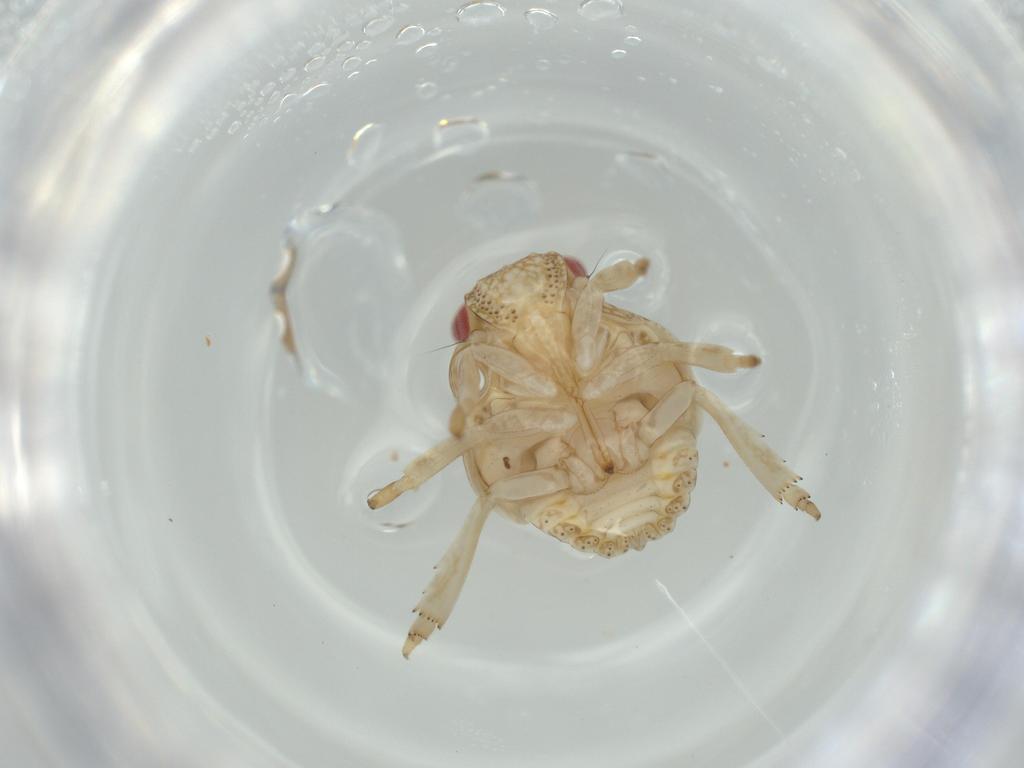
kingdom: Animalia
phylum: Arthropoda
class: Insecta
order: Hemiptera
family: Acanaloniidae
